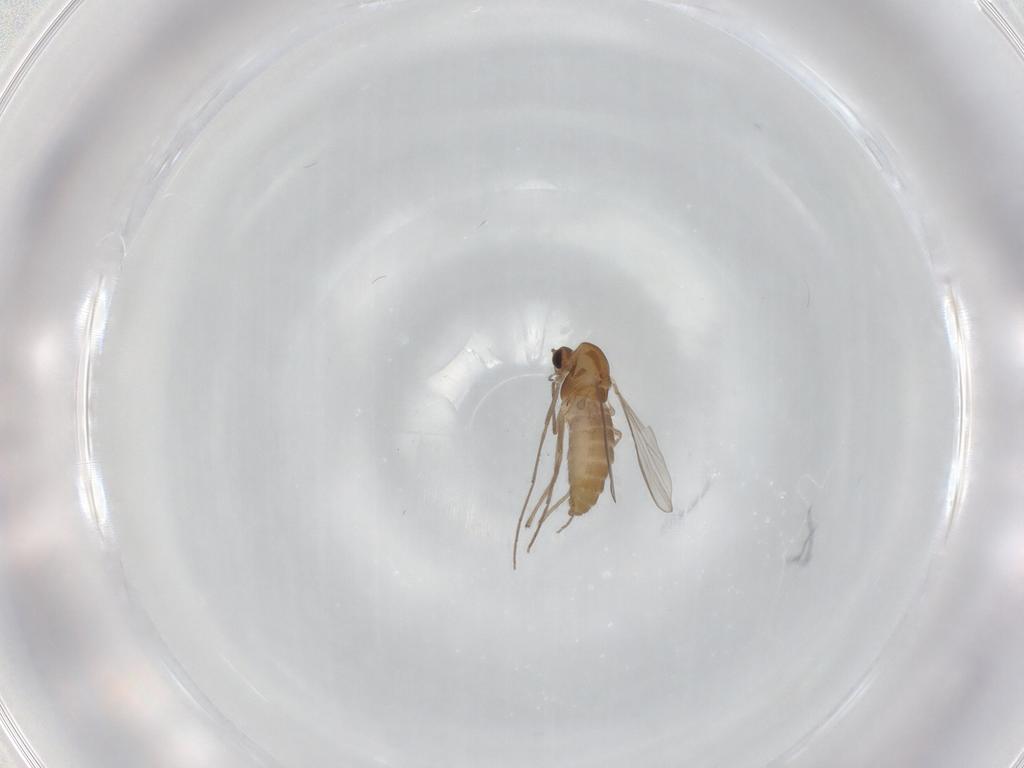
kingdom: Animalia
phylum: Arthropoda
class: Insecta
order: Diptera
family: Chironomidae
